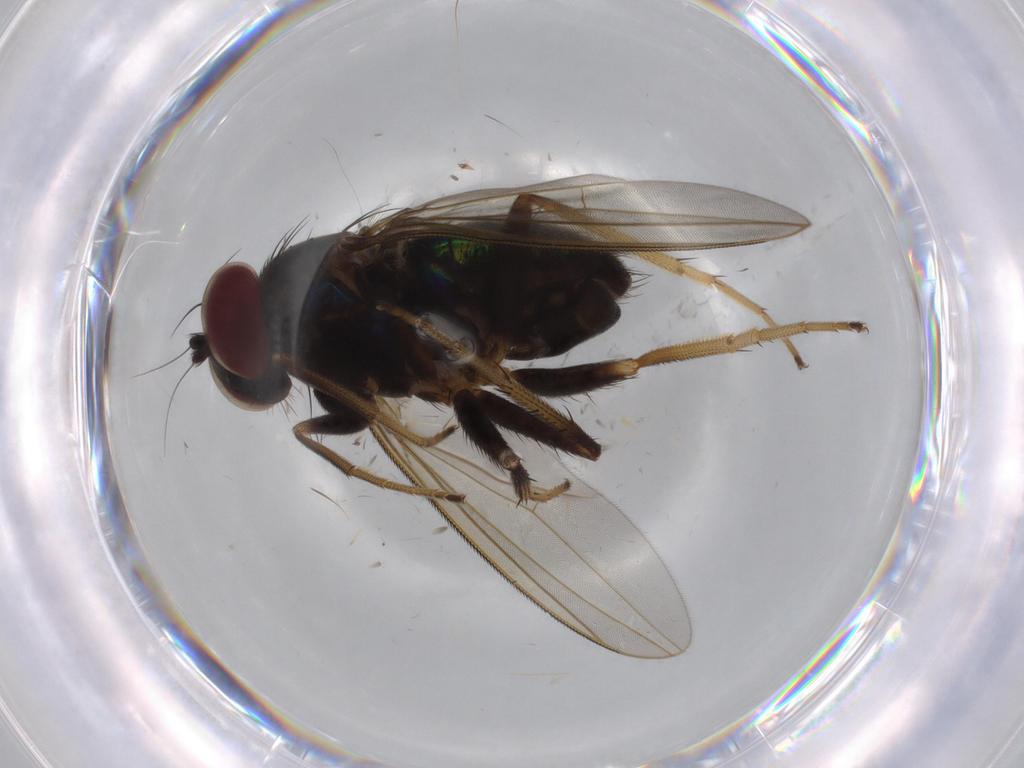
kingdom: Animalia
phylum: Arthropoda
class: Insecta
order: Diptera
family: Dolichopodidae
